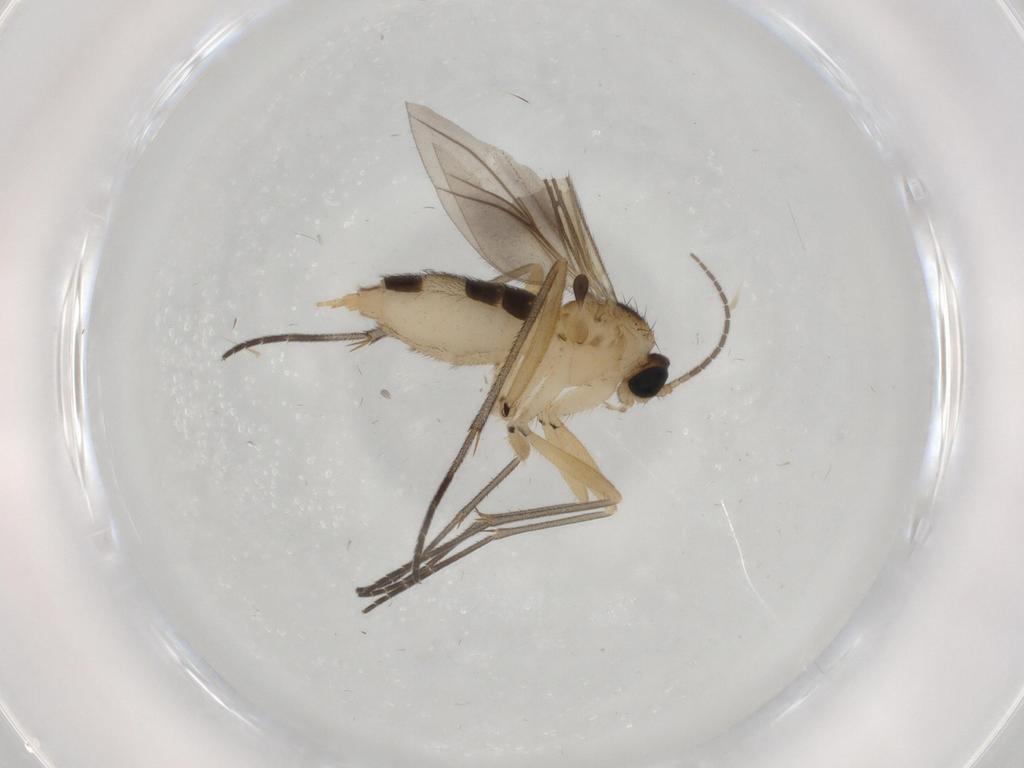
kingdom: Animalia
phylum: Arthropoda
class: Insecta
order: Diptera
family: Sciaridae
